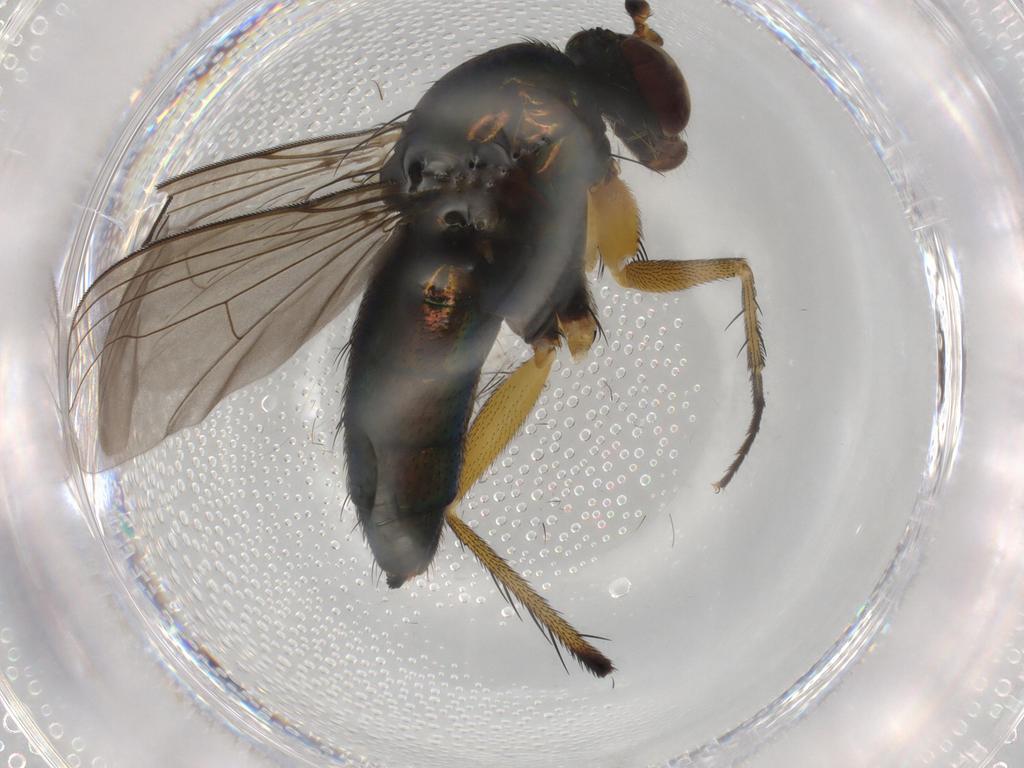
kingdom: Animalia
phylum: Arthropoda
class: Insecta
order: Diptera
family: Dolichopodidae
